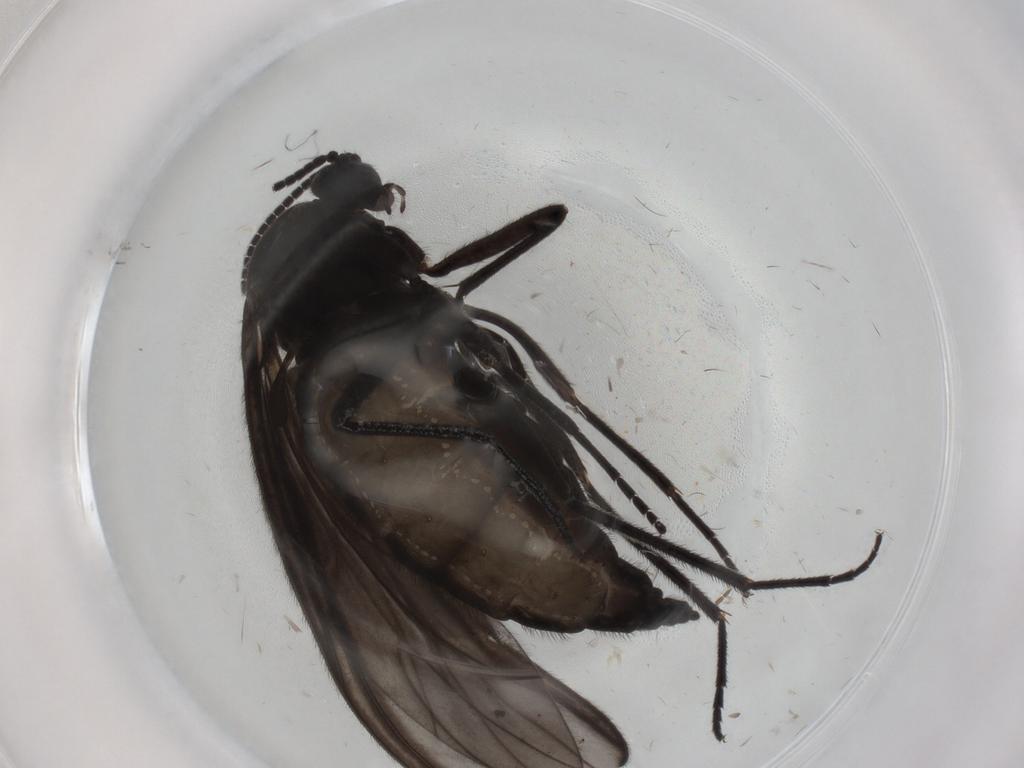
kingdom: Animalia
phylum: Arthropoda
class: Insecta
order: Diptera
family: Sciaridae
